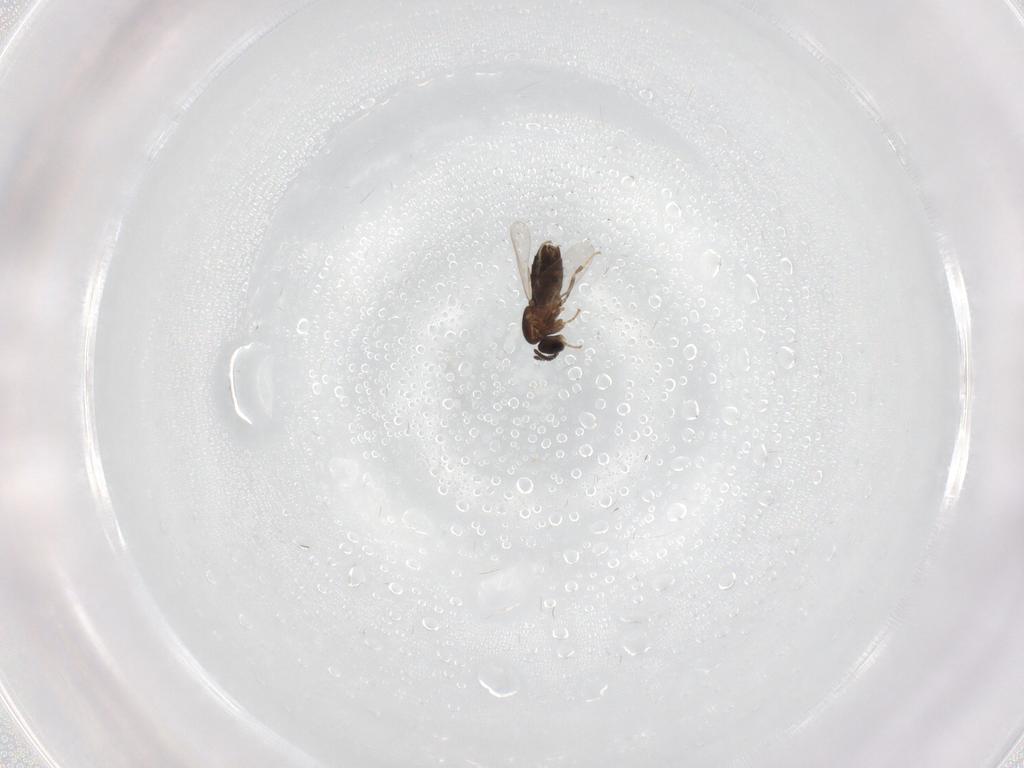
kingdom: Animalia
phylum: Arthropoda
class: Insecta
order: Diptera
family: Scatopsidae
